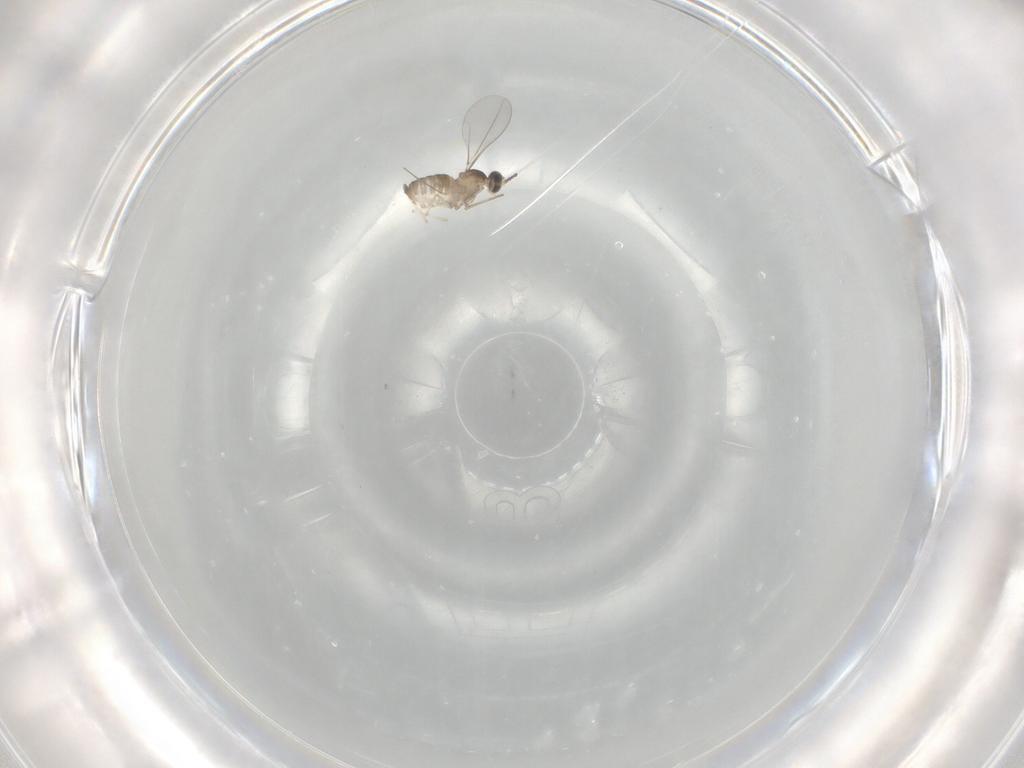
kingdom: Animalia
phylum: Arthropoda
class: Insecta
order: Diptera
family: Cecidomyiidae
